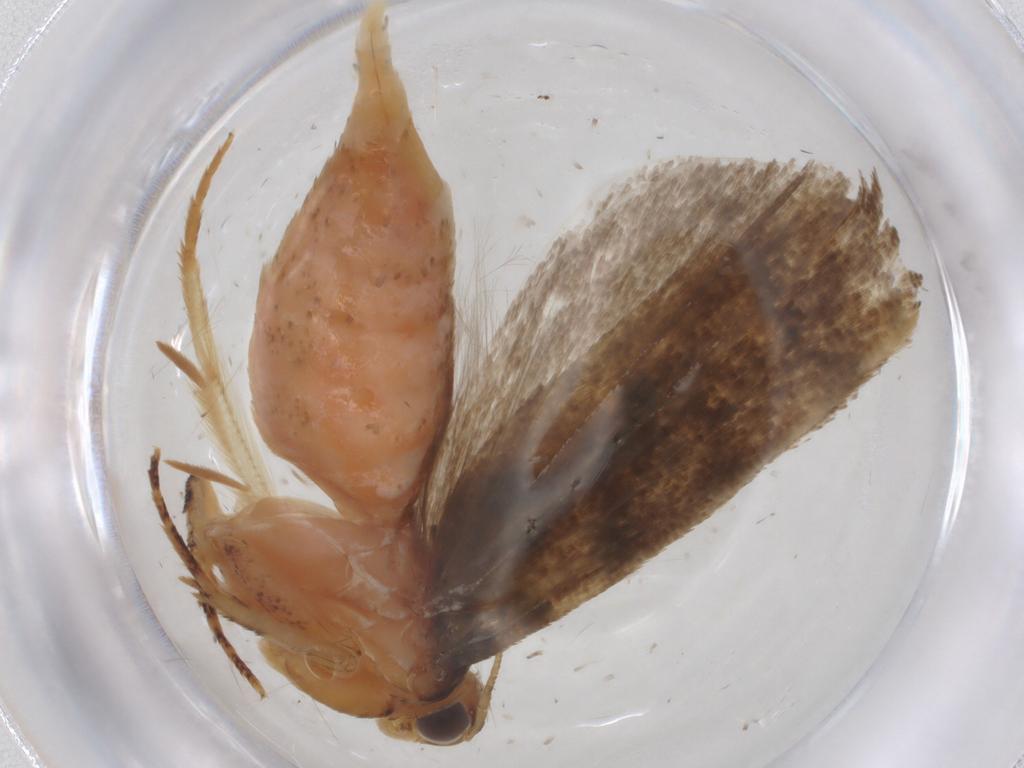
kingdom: Animalia
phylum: Arthropoda
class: Insecta
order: Lepidoptera
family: Gelechiidae
